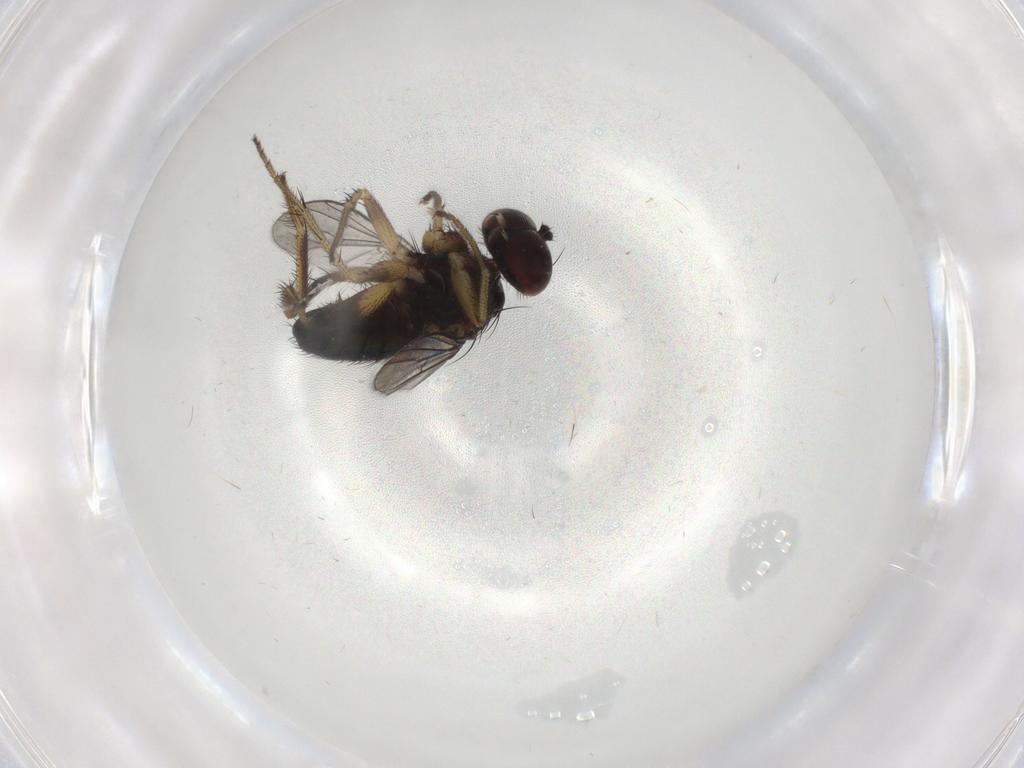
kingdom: Animalia
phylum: Arthropoda
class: Insecta
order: Diptera
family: Dolichopodidae
